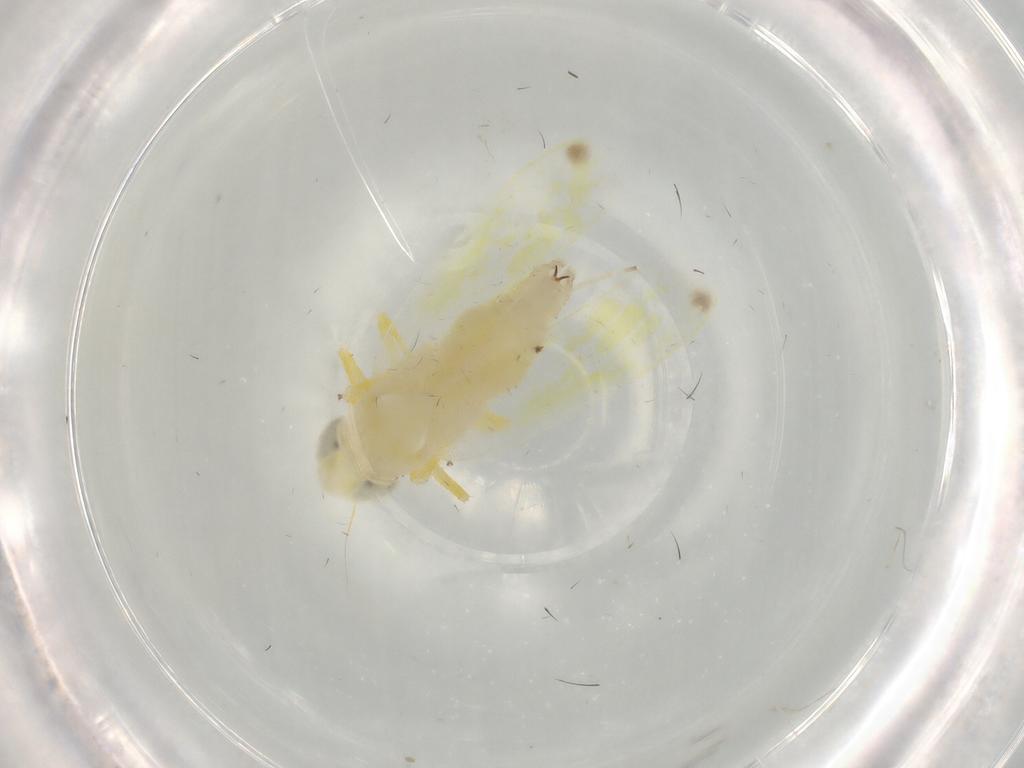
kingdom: Animalia
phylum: Arthropoda
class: Insecta
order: Hemiptera
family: Cicadellidae
